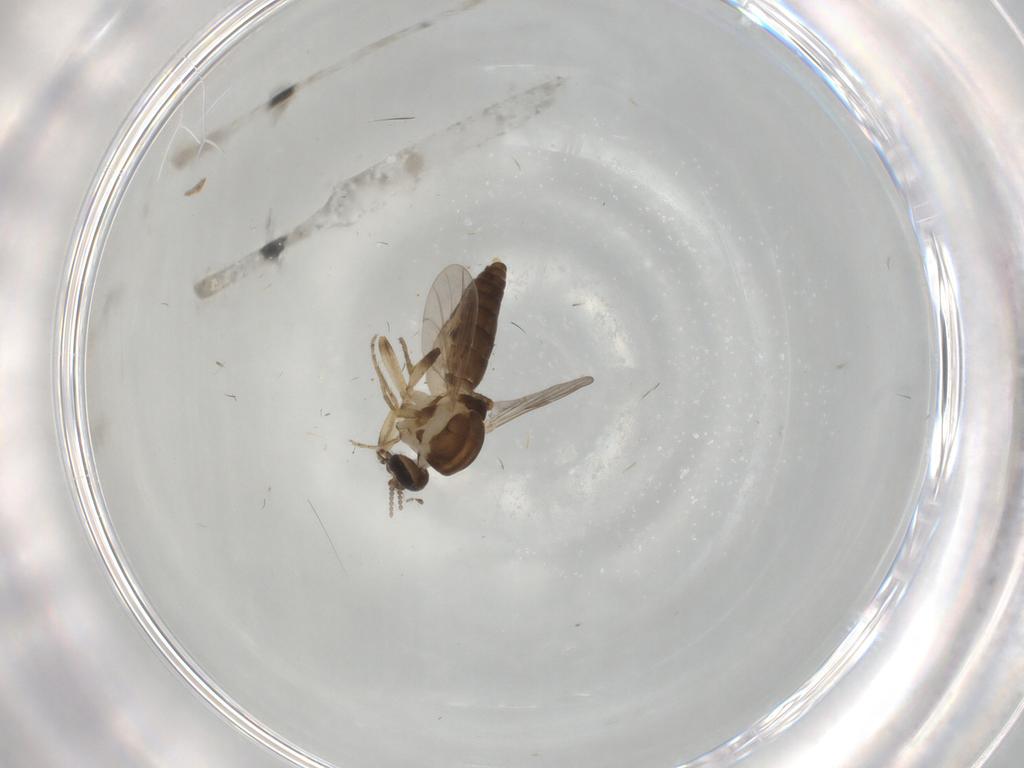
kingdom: Animalia
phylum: Arthropoda
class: Insecta
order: Diptera
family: Ceratopogonidae
